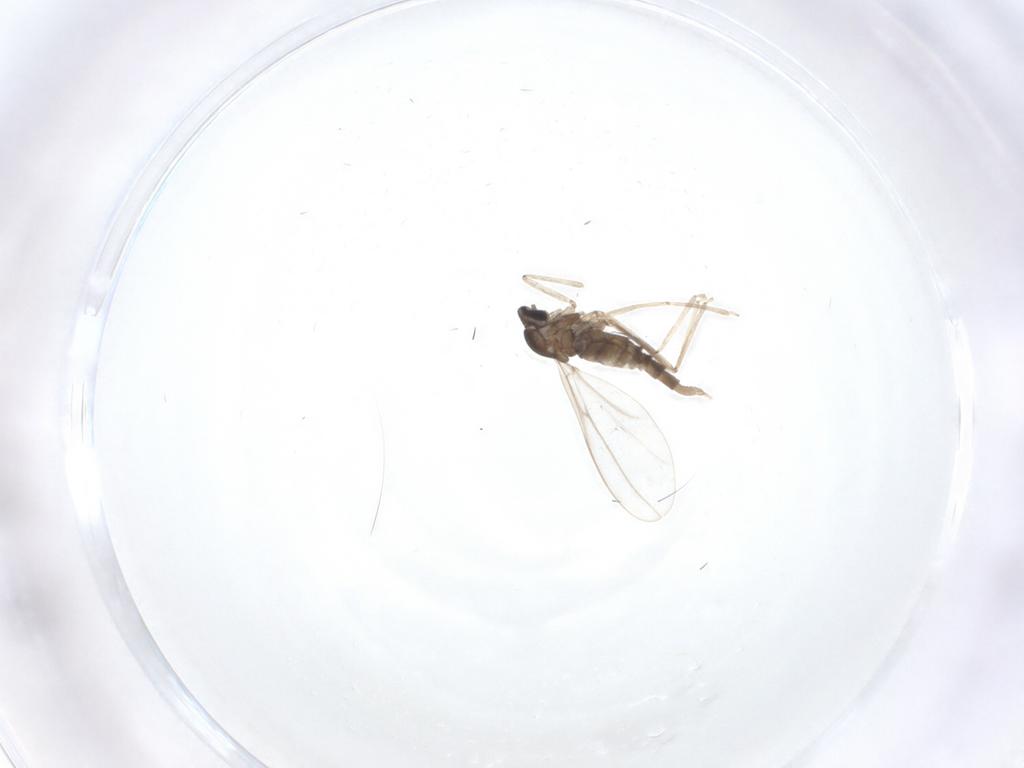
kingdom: Animalia
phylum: Arthropoda
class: Insecta
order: Diptera
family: Cecidomyiidae
